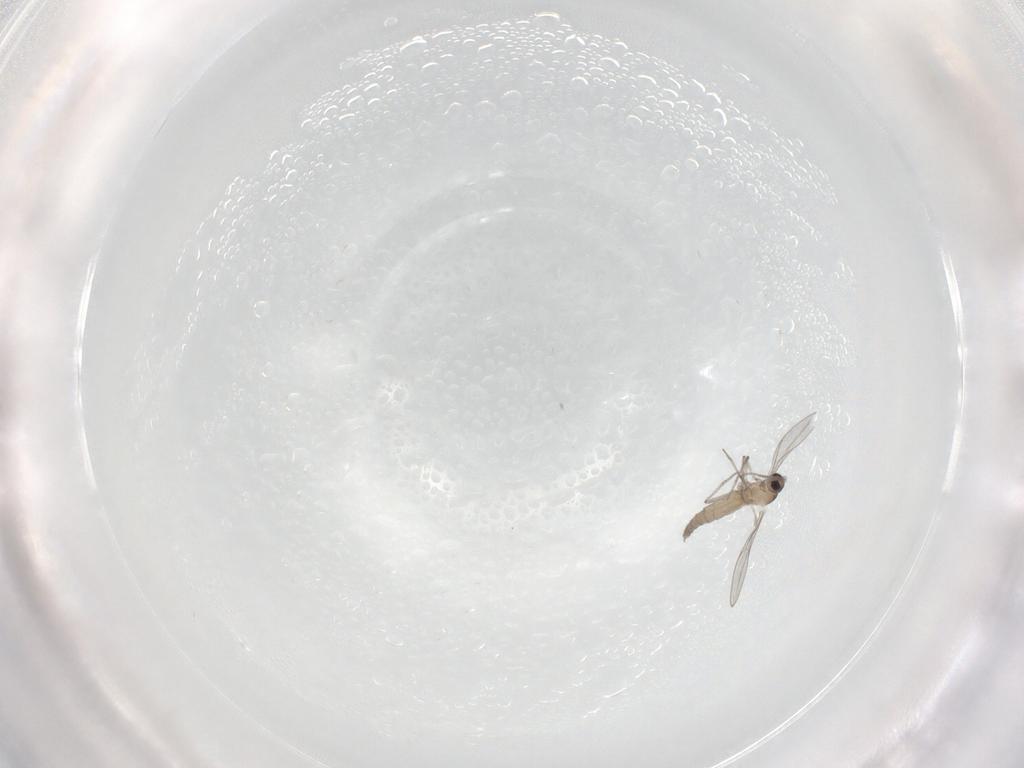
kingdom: Animalia
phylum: Arthropoda
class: Insecta
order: Diptera
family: Cecidomyiidae
